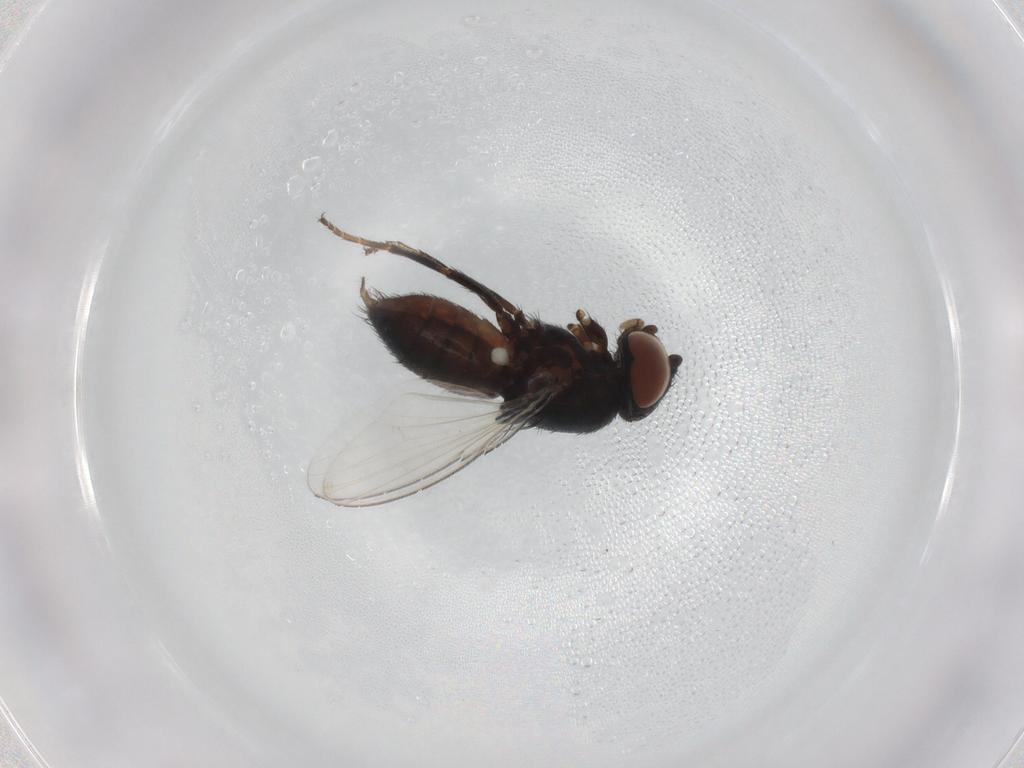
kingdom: Animalia
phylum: Arthropoda
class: Insecta
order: Diptera
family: Milichiidae
